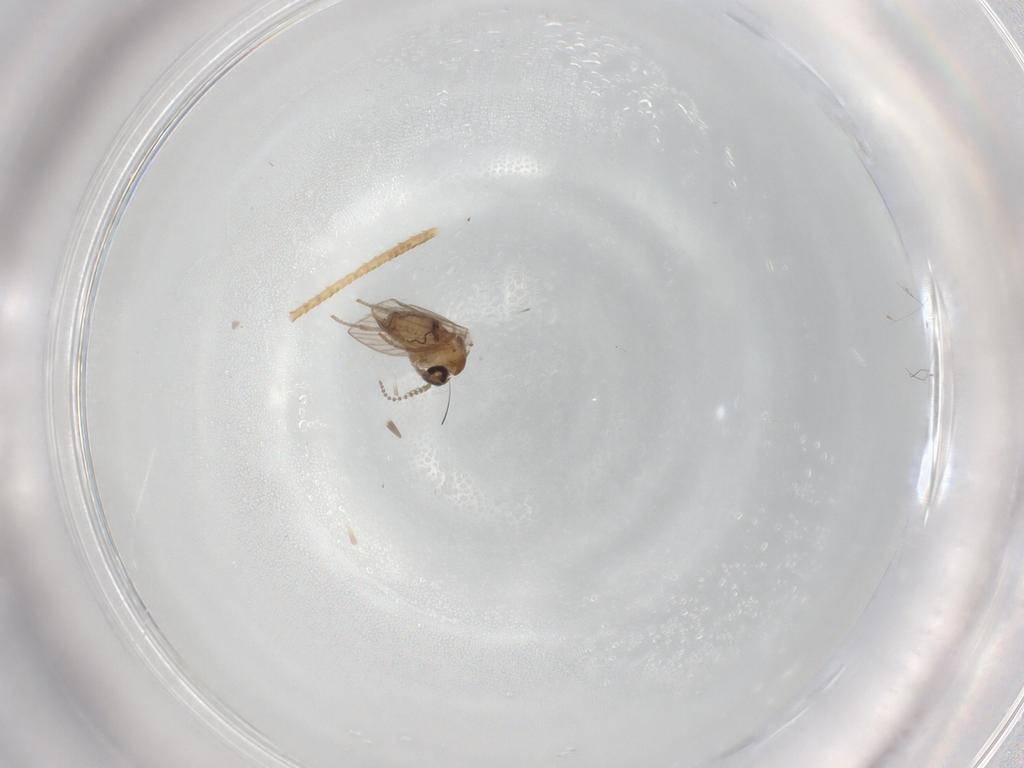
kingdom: Animalia
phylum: Arthropoda
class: Insecta
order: Diptera
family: Psychodidae
